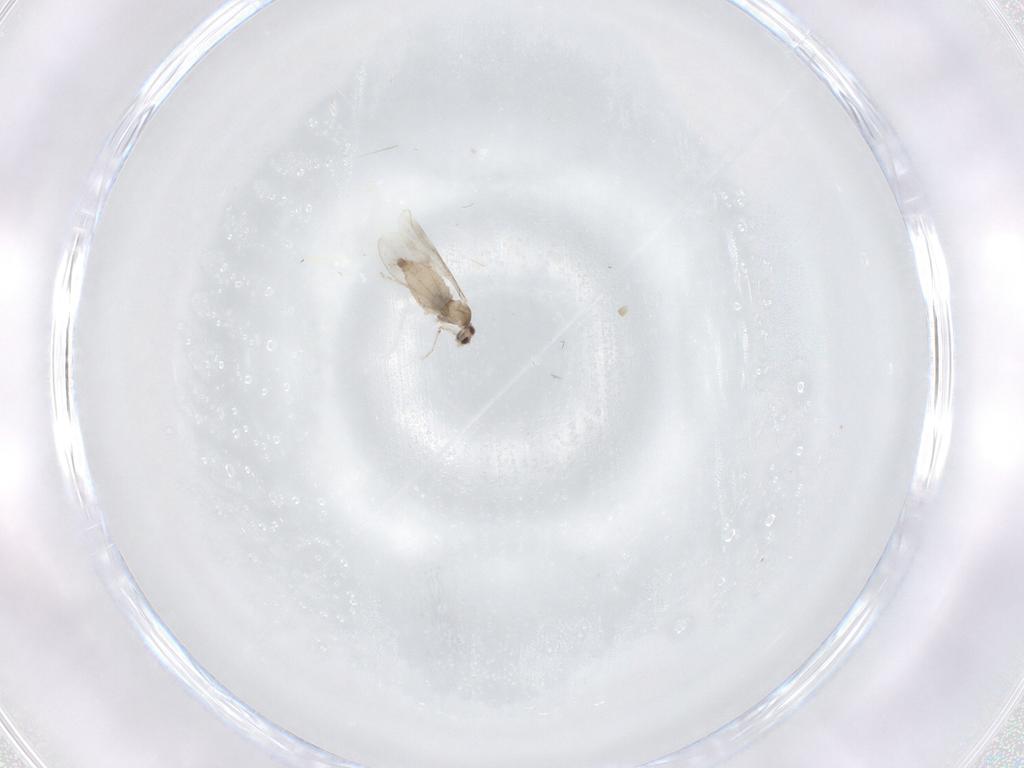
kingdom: Animalia
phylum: Arthropoda
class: Insecta
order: Diptera
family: Cecidomyiidae
